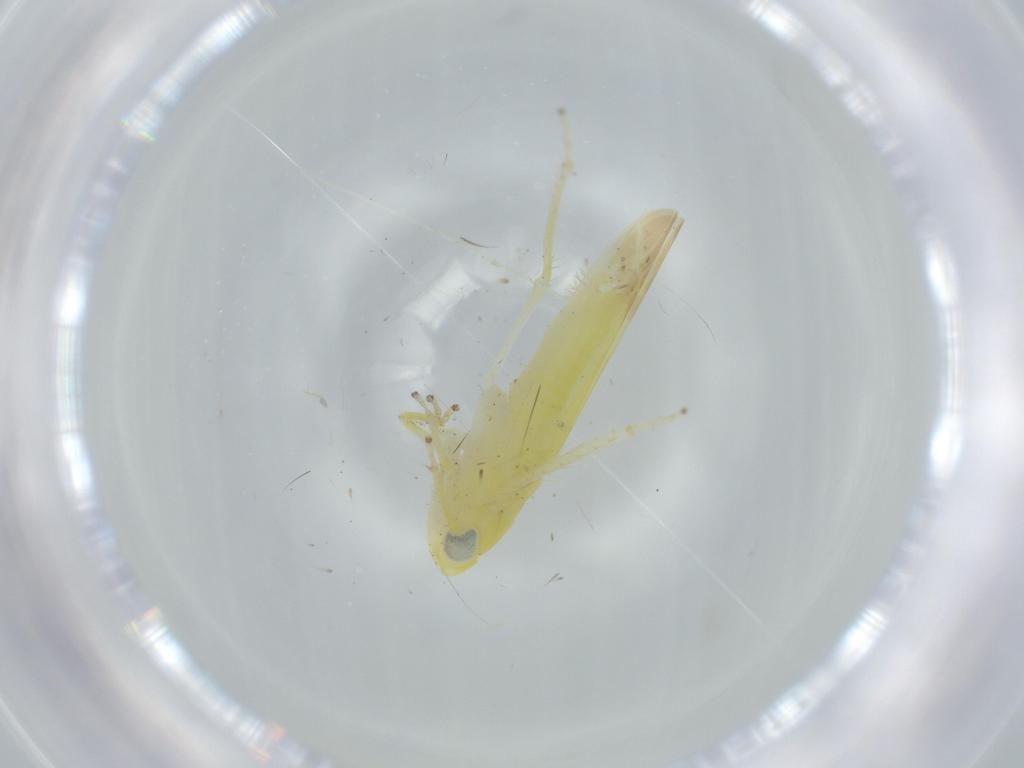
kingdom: Animalia
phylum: Arthropoda
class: Insecta
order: Hemiptera
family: Cicadellidae
